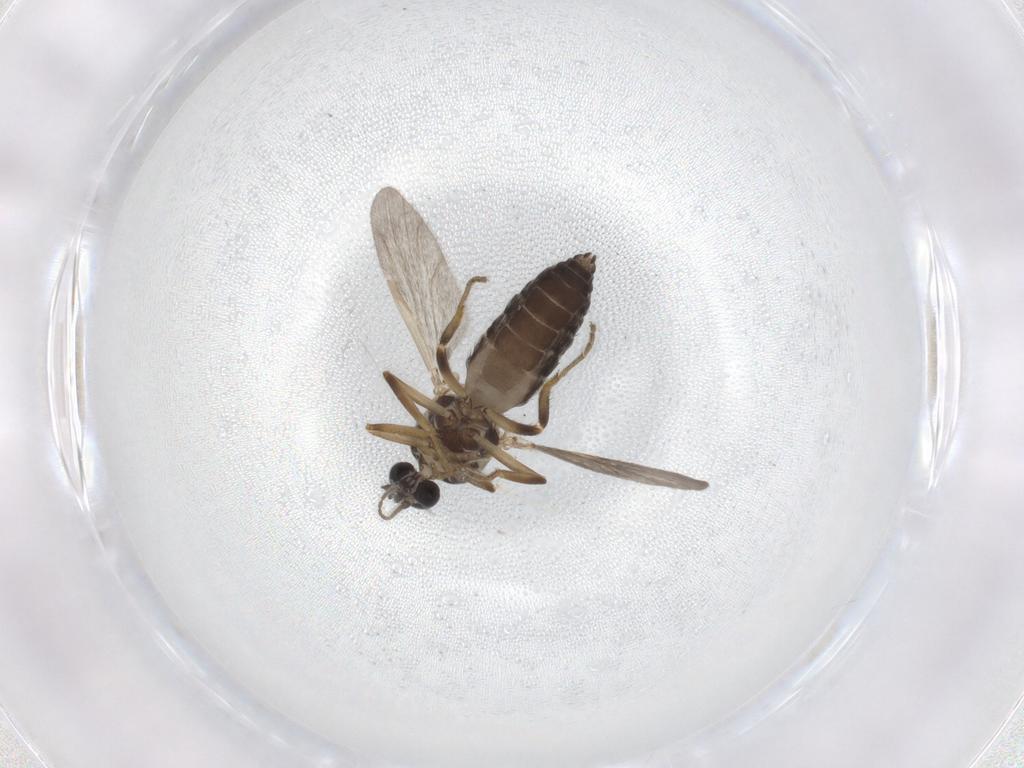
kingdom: Animalia
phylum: Arthropoda
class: Insecta
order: Diptera
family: Ceratopogonidae
